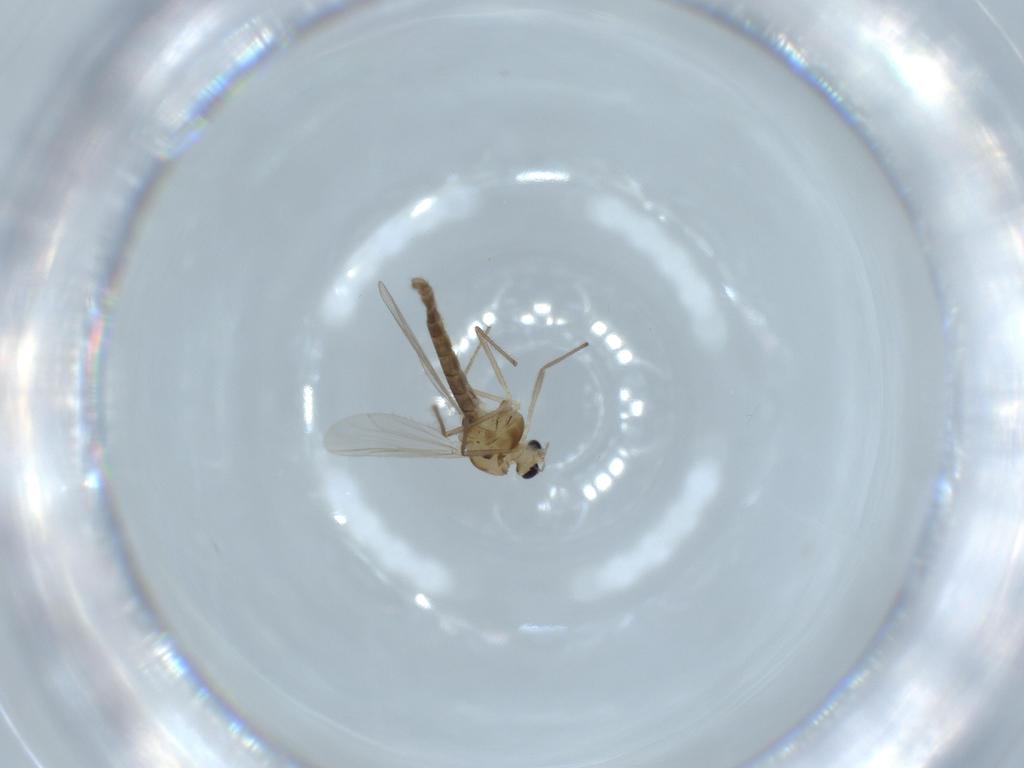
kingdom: Animalia
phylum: Arthropoda
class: Insecta
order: Diptera
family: Chironomidae
